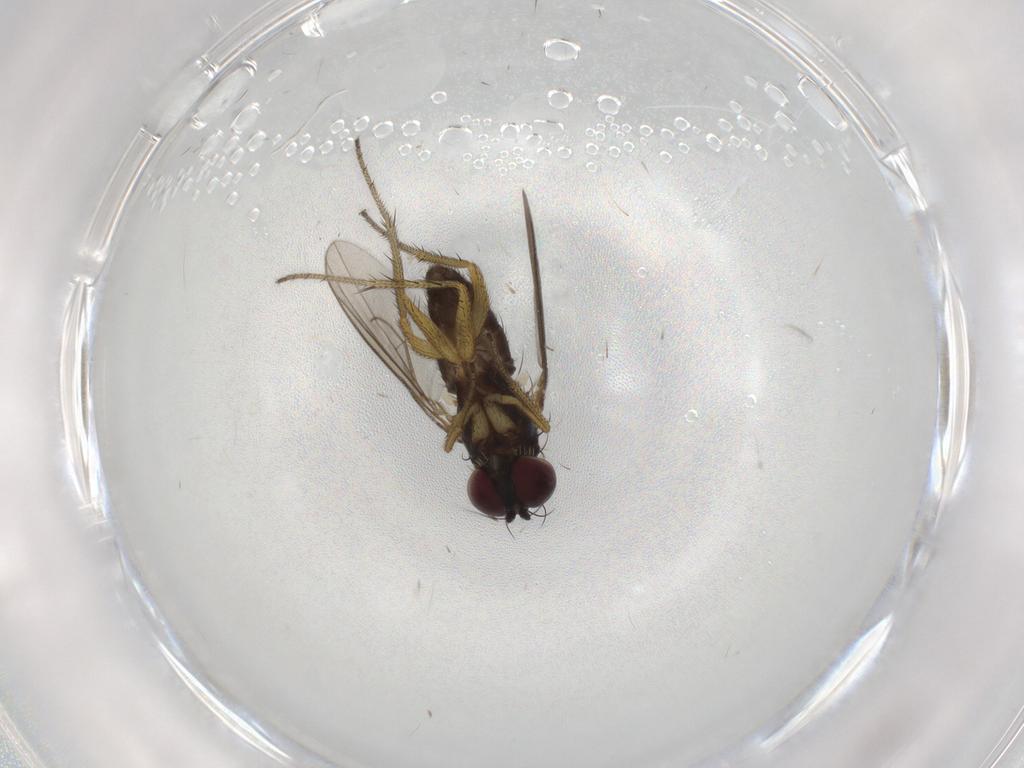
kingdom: Animalia
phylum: Arthropoda
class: Insecta
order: Diptera
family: Dolichopodidae
